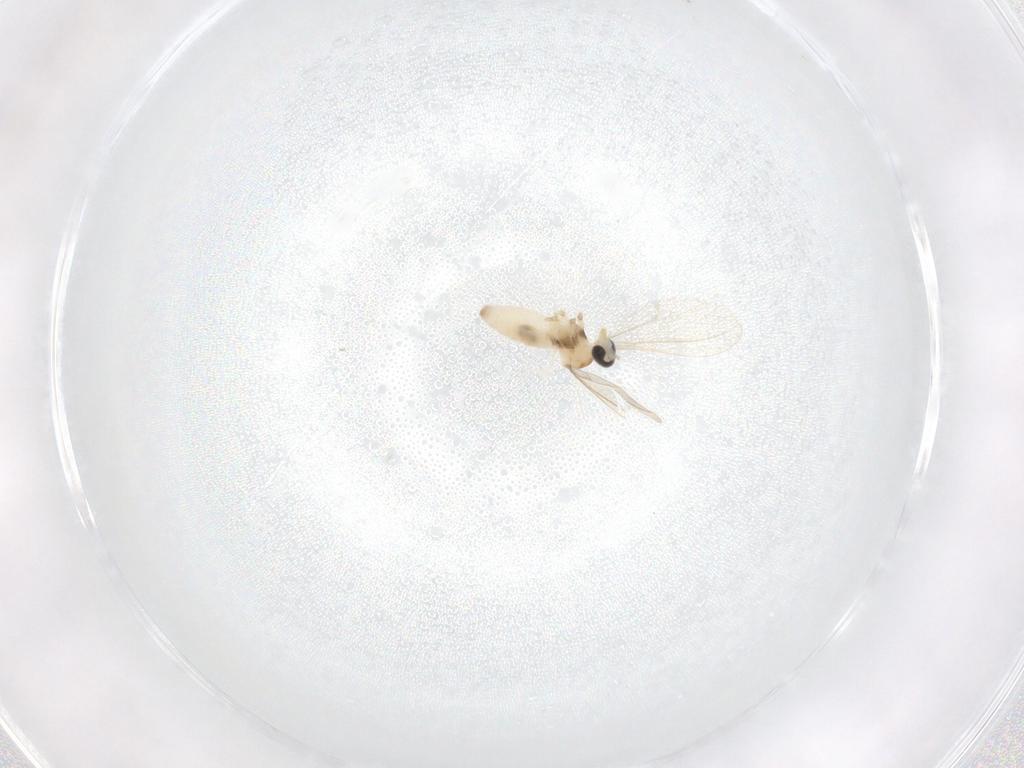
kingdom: Animalia
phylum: Arthropoda
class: Insecta
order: Diptera
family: Cecidomyiidae
